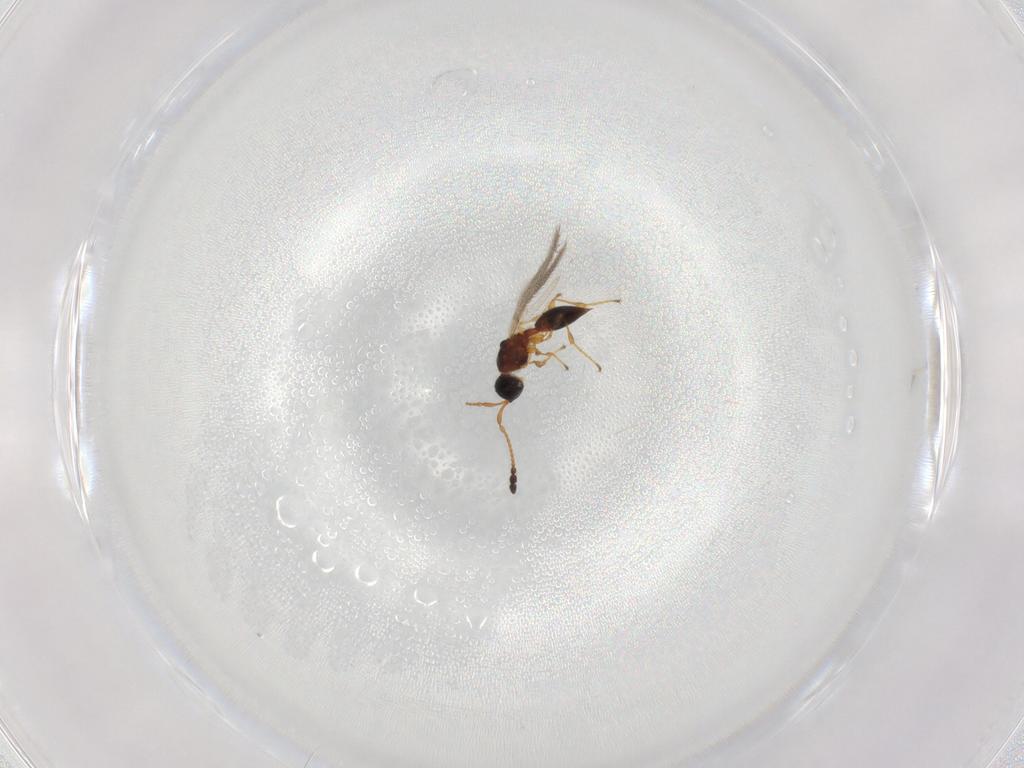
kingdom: Animalia
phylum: Arthropoda
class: Insecta
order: Hymenoptera
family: Diapriidae
